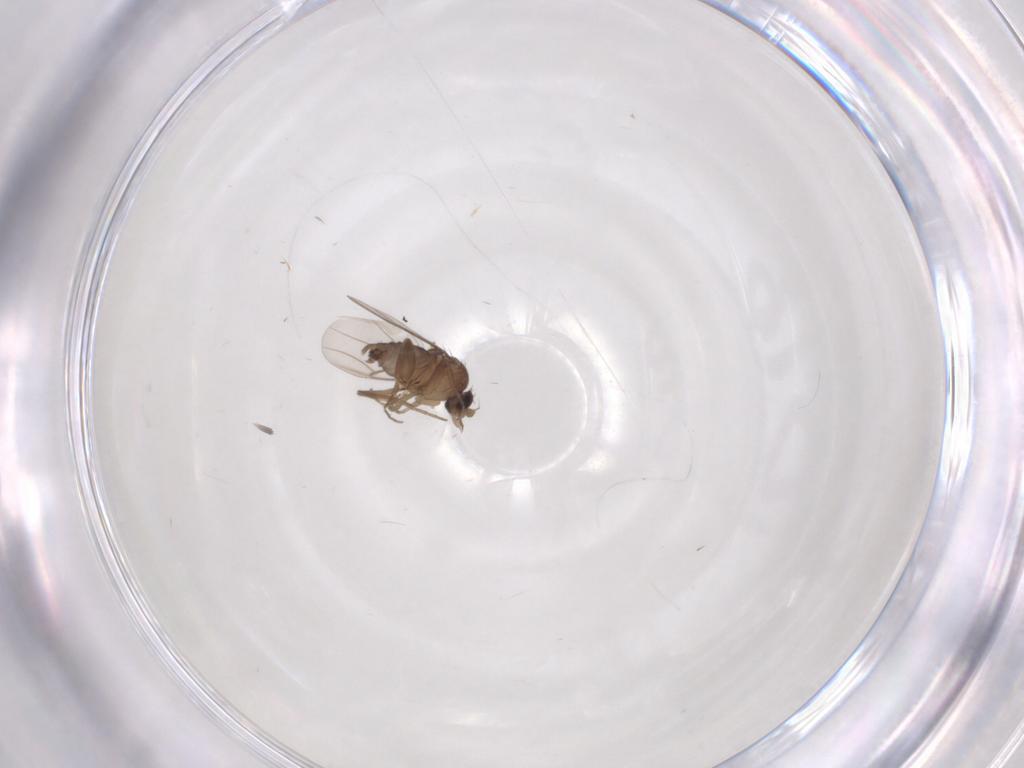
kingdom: Animalia
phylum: Arthropoda
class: Insecta
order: Diptera
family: Phoridae
